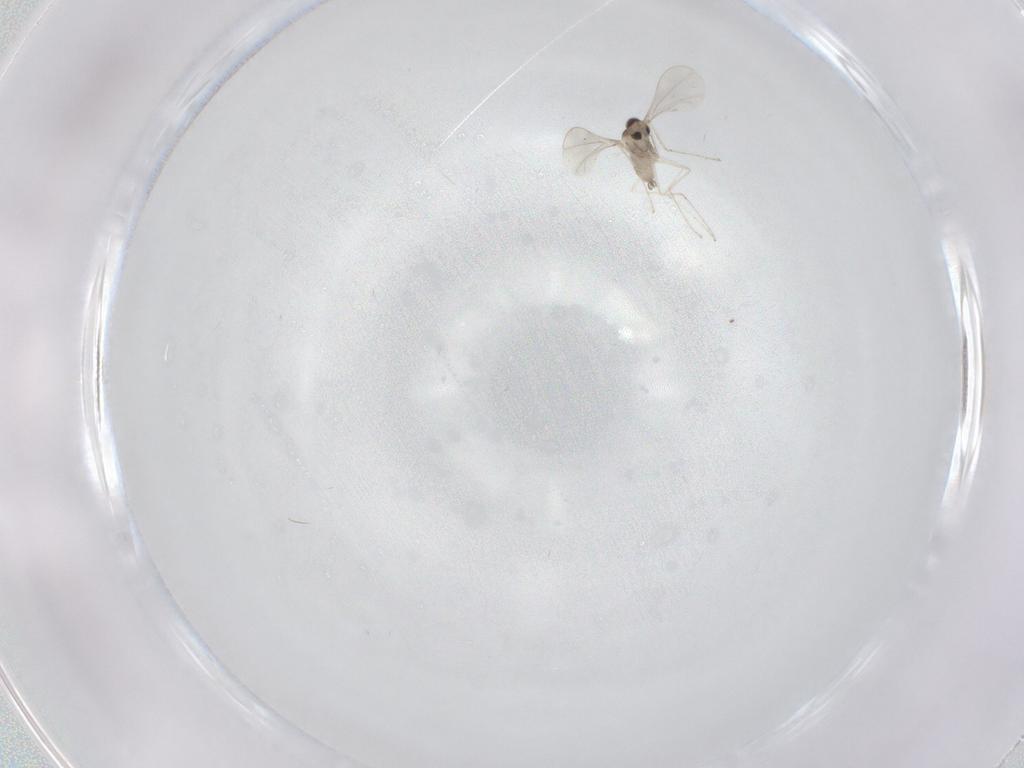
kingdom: Animalia
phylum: Arthropoda
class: Insecta
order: Diptera
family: Cecidomyiidae
